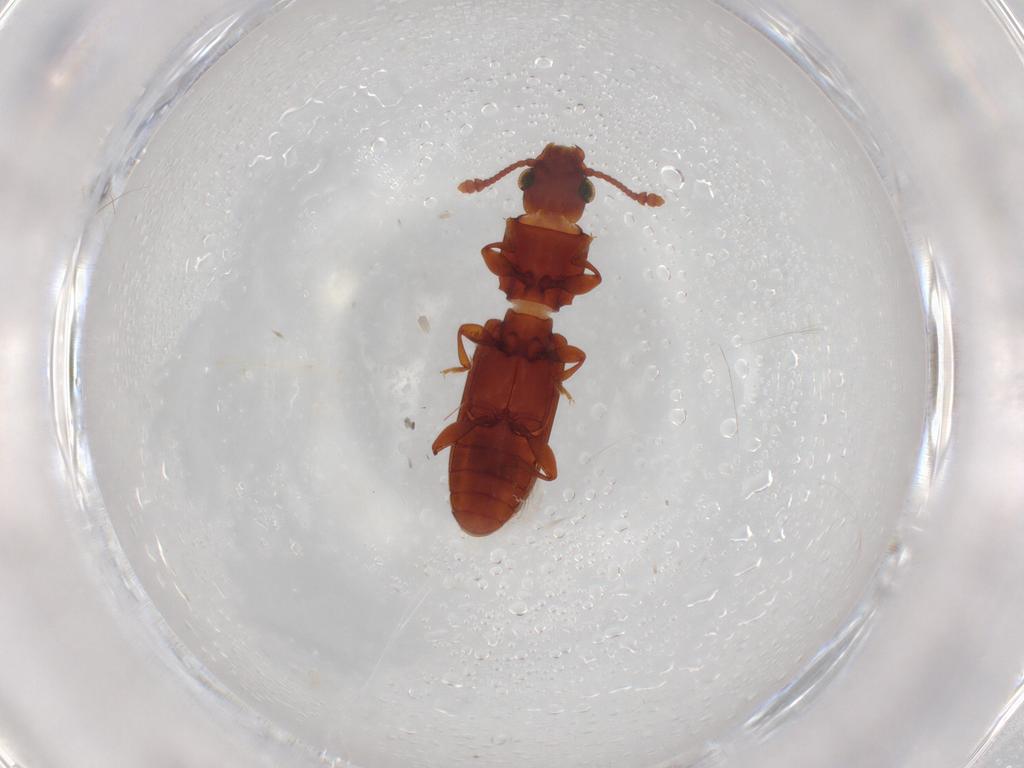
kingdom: Animalia
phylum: Arthropoda
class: Insecta
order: Coleoptera
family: Silvanidae
